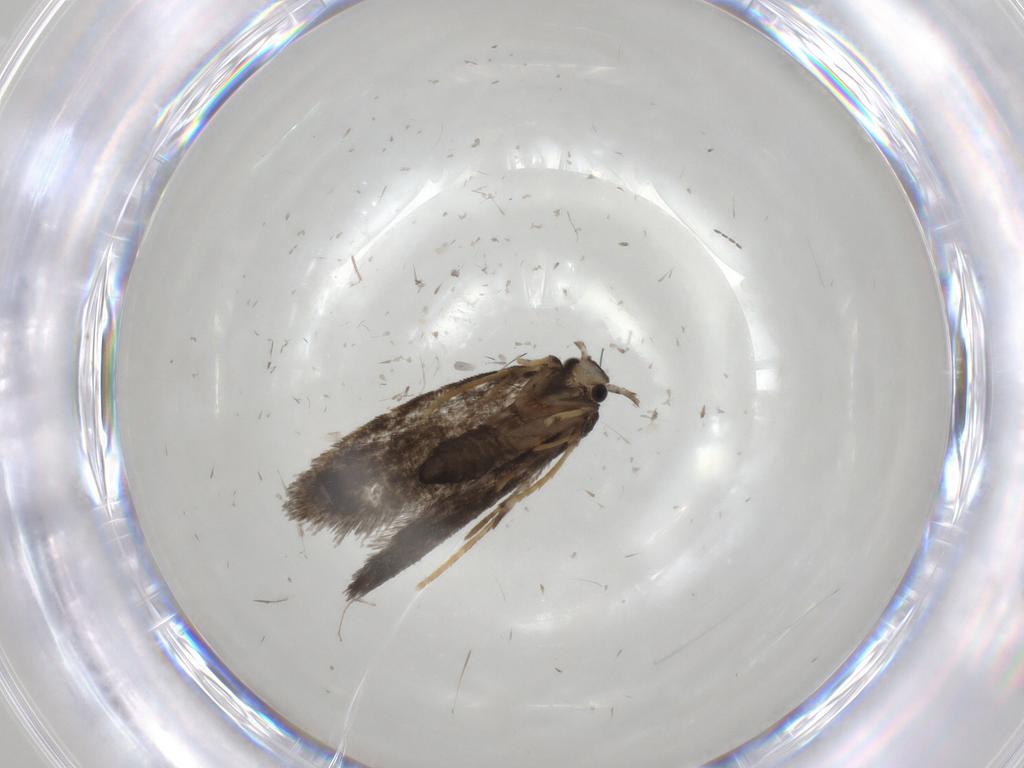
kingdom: Animalia
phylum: Arthropoda
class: Insecta
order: Lepidoptera
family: Psychidae
